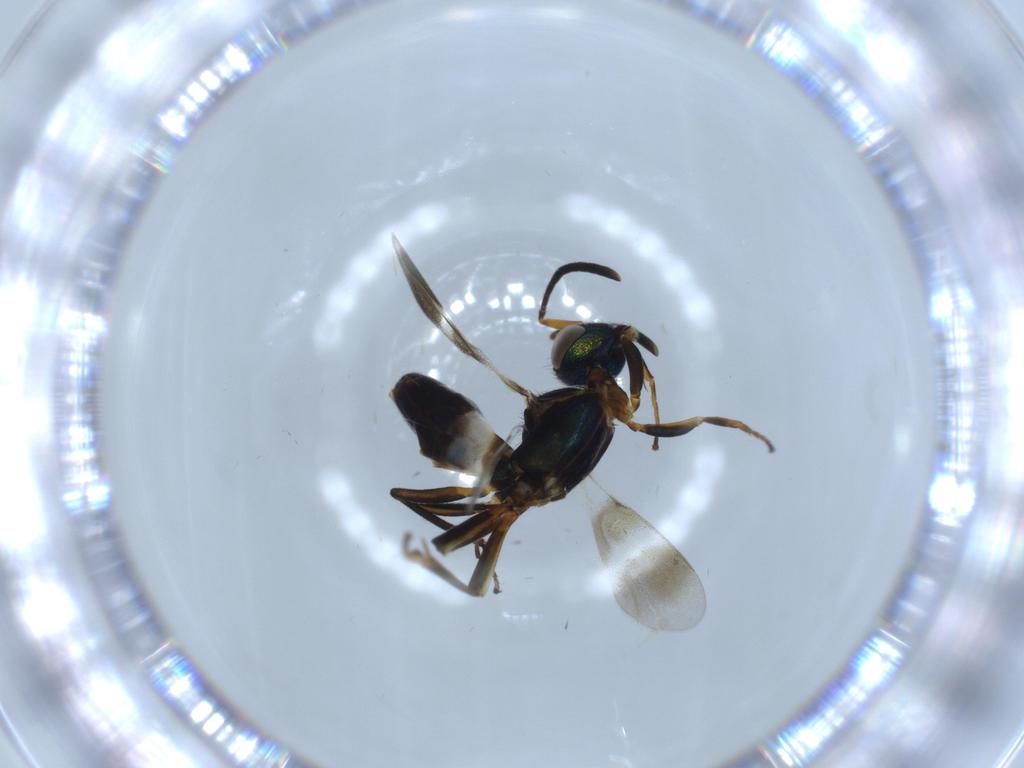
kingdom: Animalia
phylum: Arthropoda
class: Insecta
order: Hymenoptera
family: Eupelmidae
